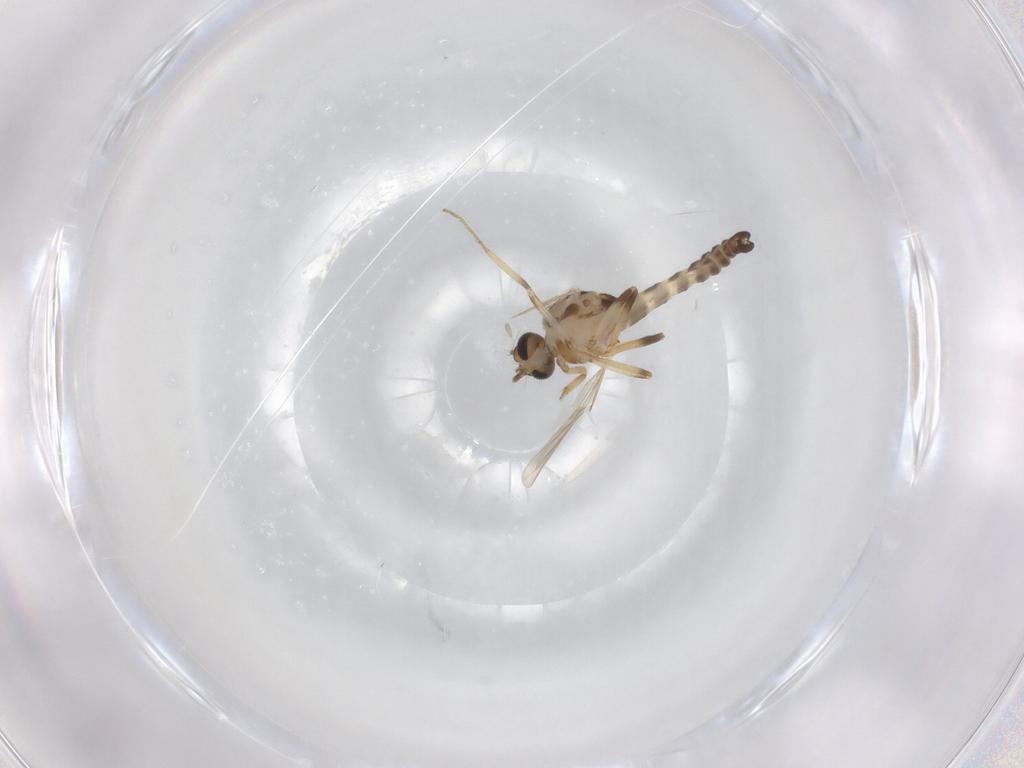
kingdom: Animalia
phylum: Arthropoda
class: Insecta
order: Diptera
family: Ceratopogonidae
